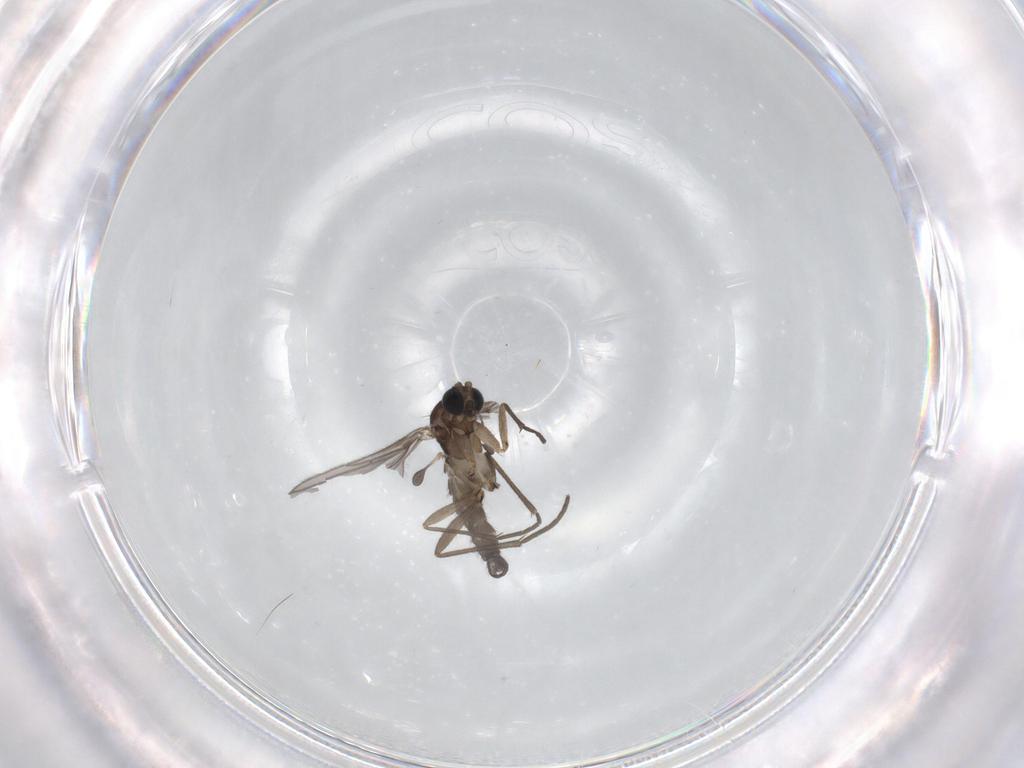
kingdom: Animalia
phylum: Arthropoda
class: Insecta
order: Diptera
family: Sciaridae
